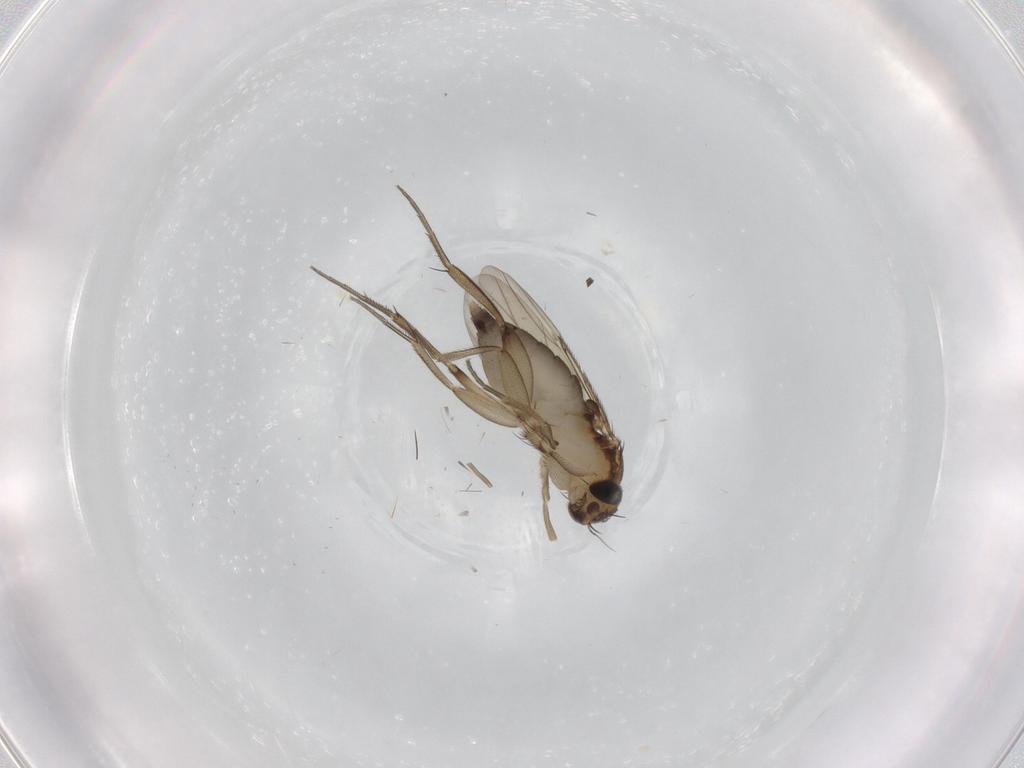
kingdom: Animalia
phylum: Arthropoda
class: Insecta
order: Diptera
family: Phoridae
